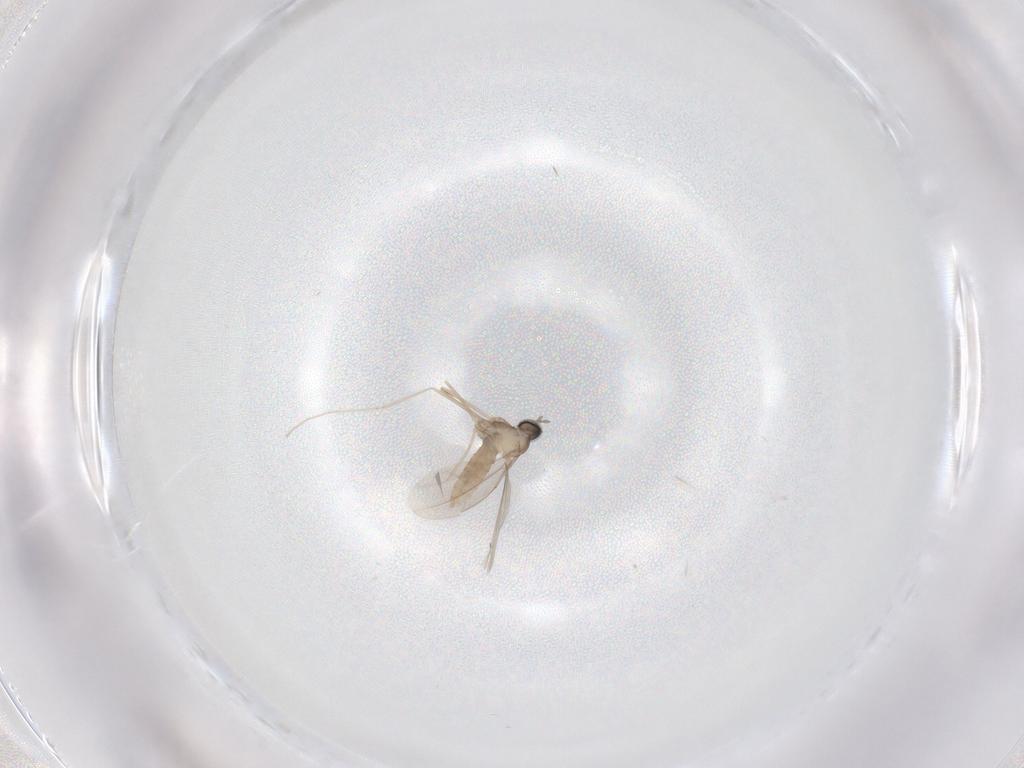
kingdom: Animalia
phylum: Arthropoda
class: Insecta
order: Diptera
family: Sciaridae
